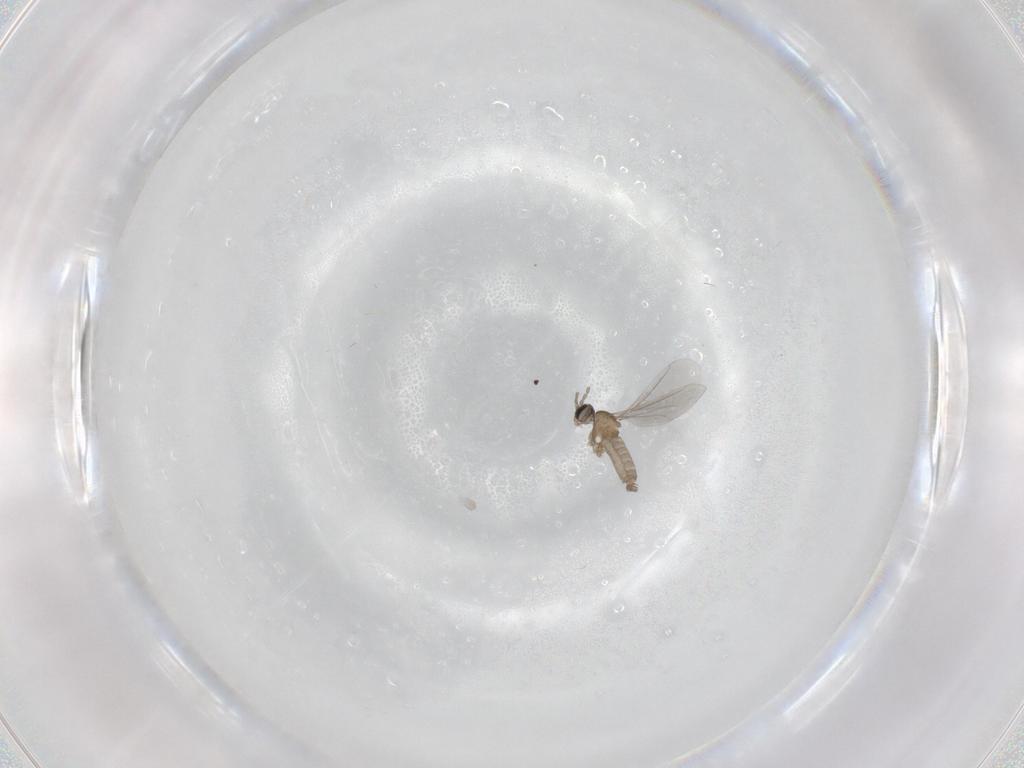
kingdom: Animalia
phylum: Arthropoda
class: Insecta
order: Diptera
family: Cecidomyiidae
